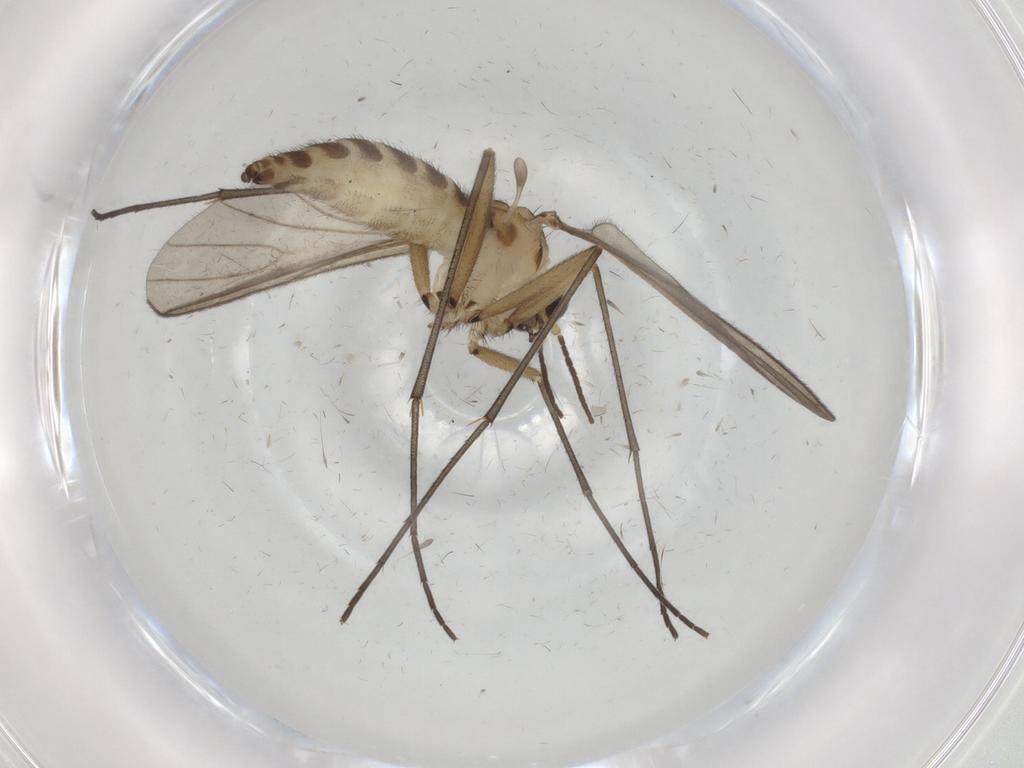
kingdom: Animalia
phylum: Arthropoda
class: Insecta
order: Diptera
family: Sciaridae
